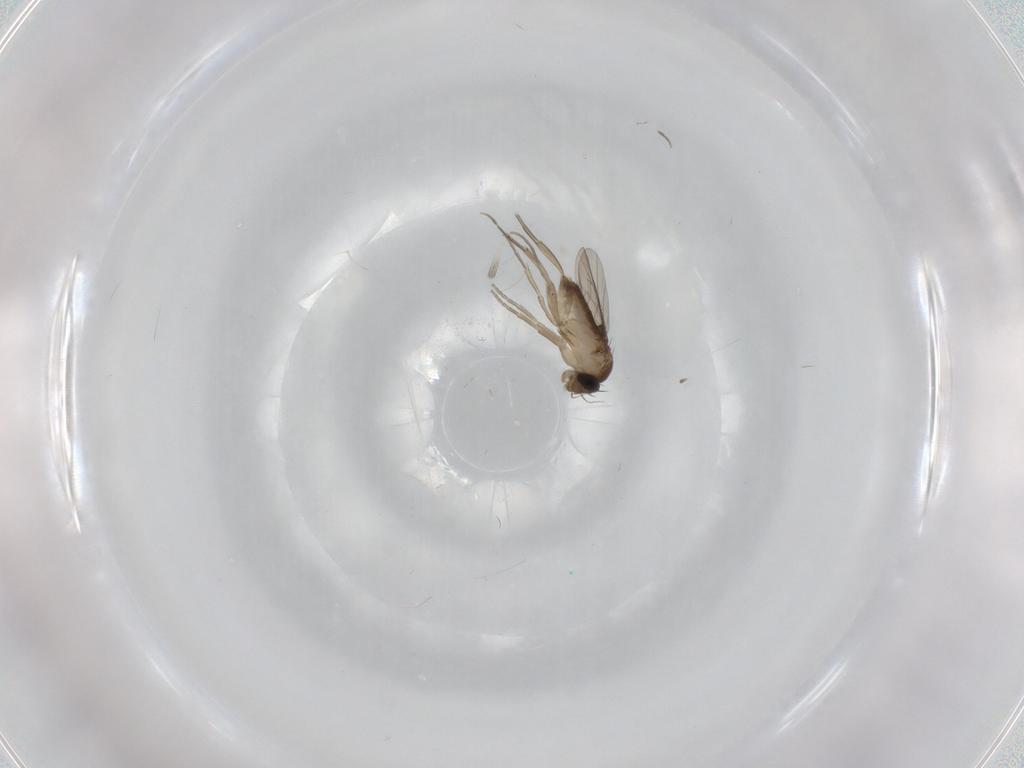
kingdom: Animalia
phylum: Arthropoda
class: Insecta
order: Diptera
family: Phoridae
